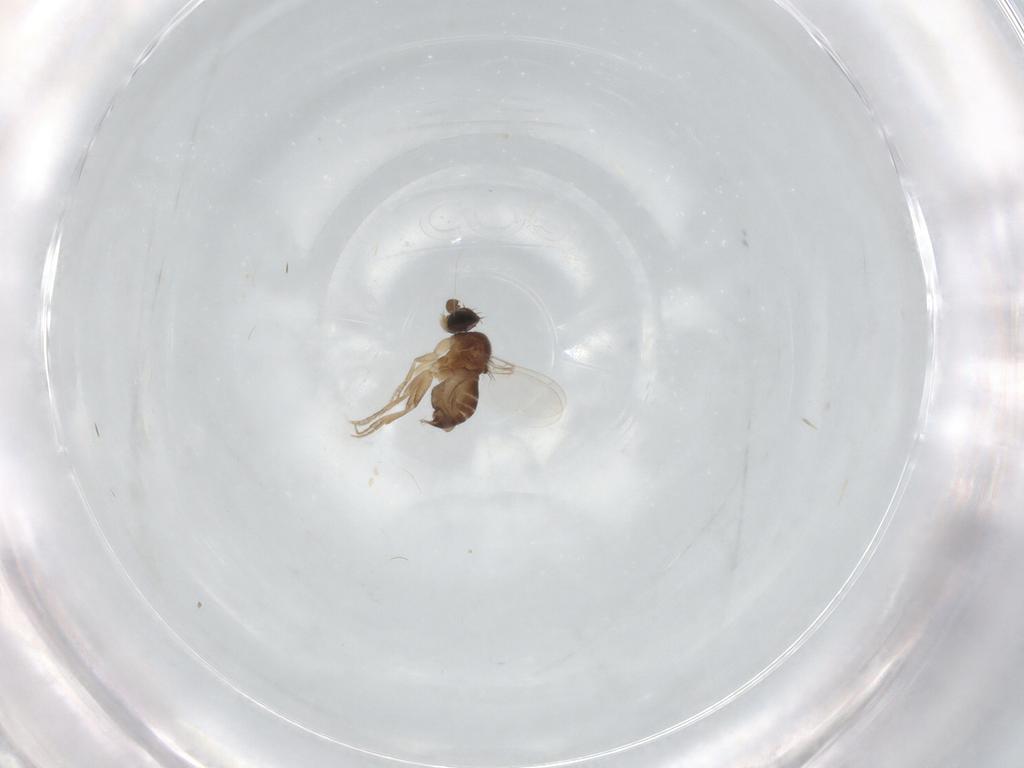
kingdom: Animalia
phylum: Arthropoda
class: Insecta
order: Diptera
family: Phoridae
